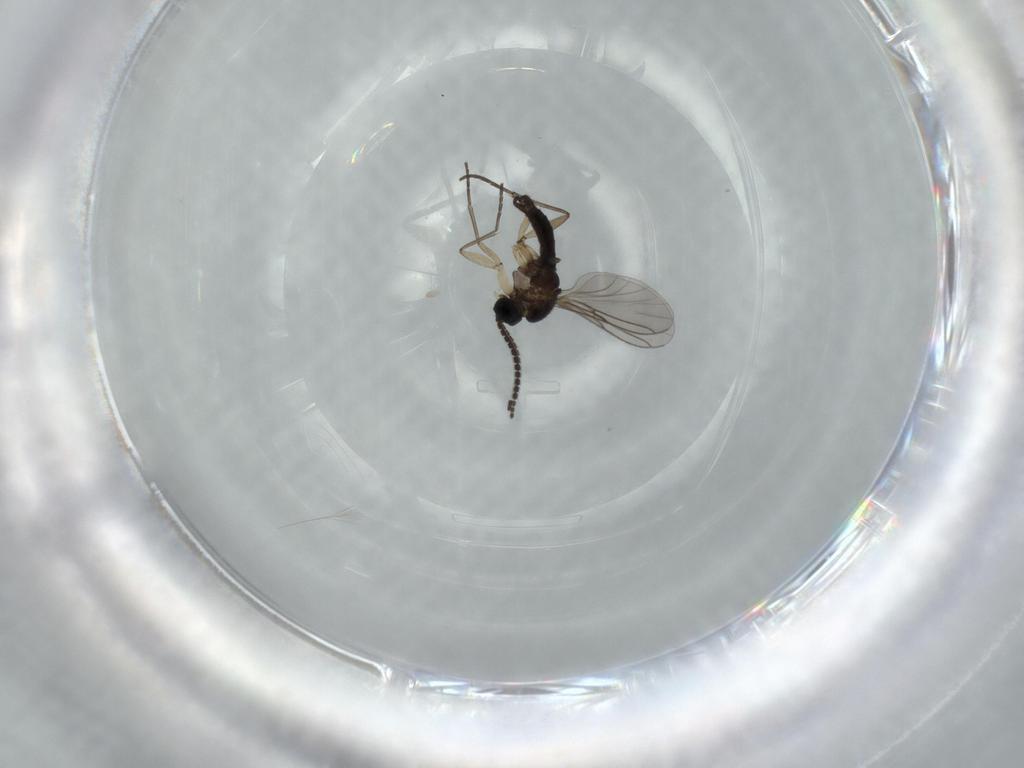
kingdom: Animalia
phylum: Arthropoda
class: Insecta
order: Diptera
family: Sciaridae
